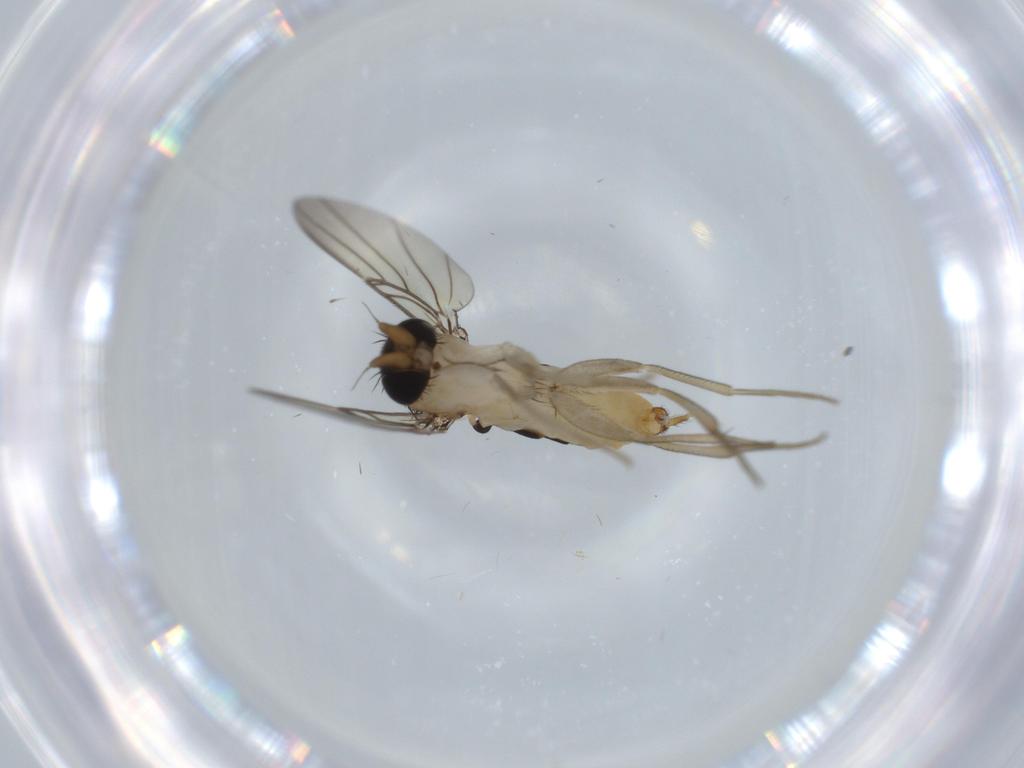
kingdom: Animalia
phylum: Arthropoda
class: Insecta
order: Diptera
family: Phoridae
